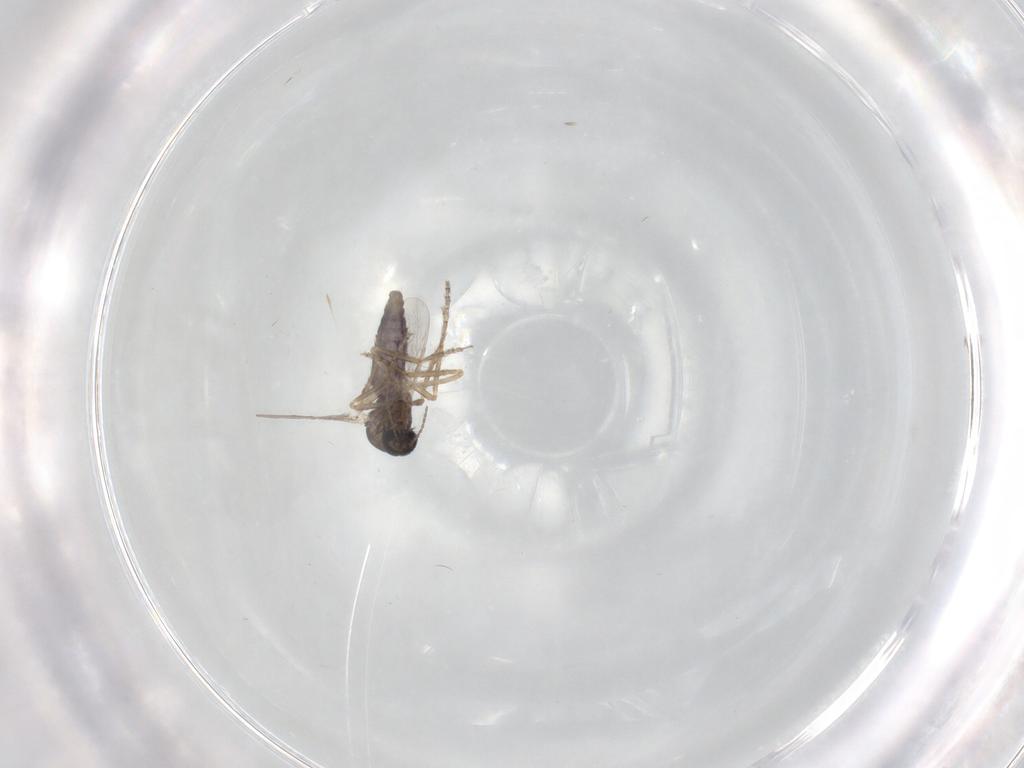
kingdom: Animalia
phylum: Arthropoda
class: Insecta
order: Diptera
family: Ceratopogonidae
